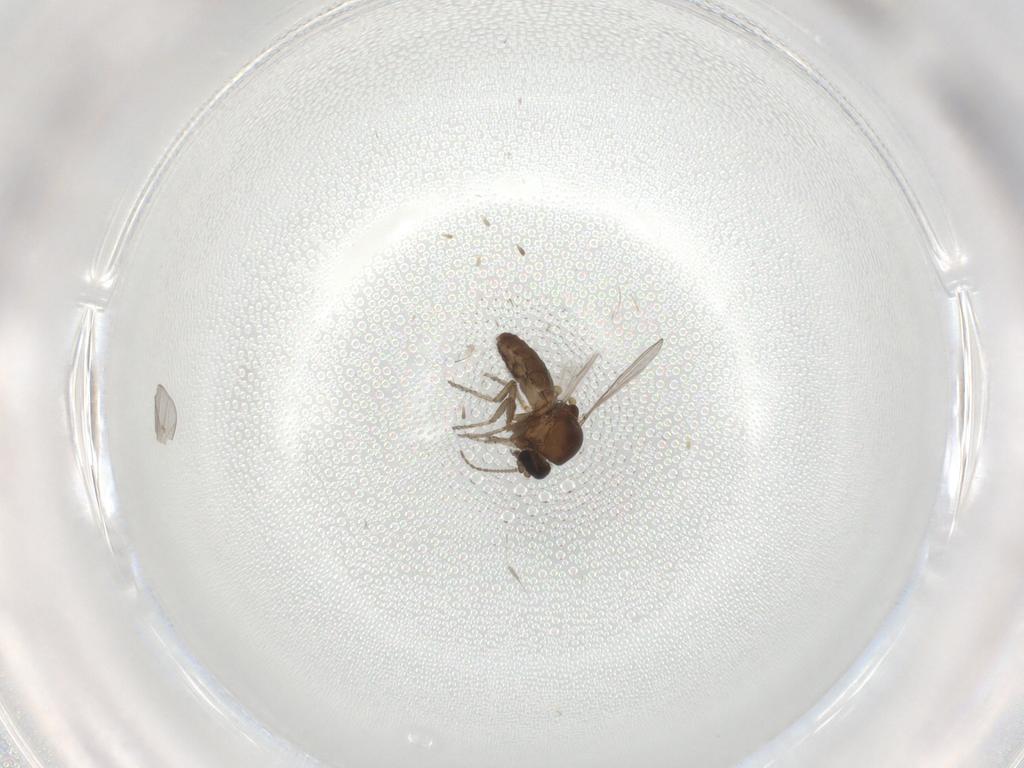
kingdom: Animalia
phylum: Arthropoda
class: Insecta
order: Diptera
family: Ceratopogonidae
